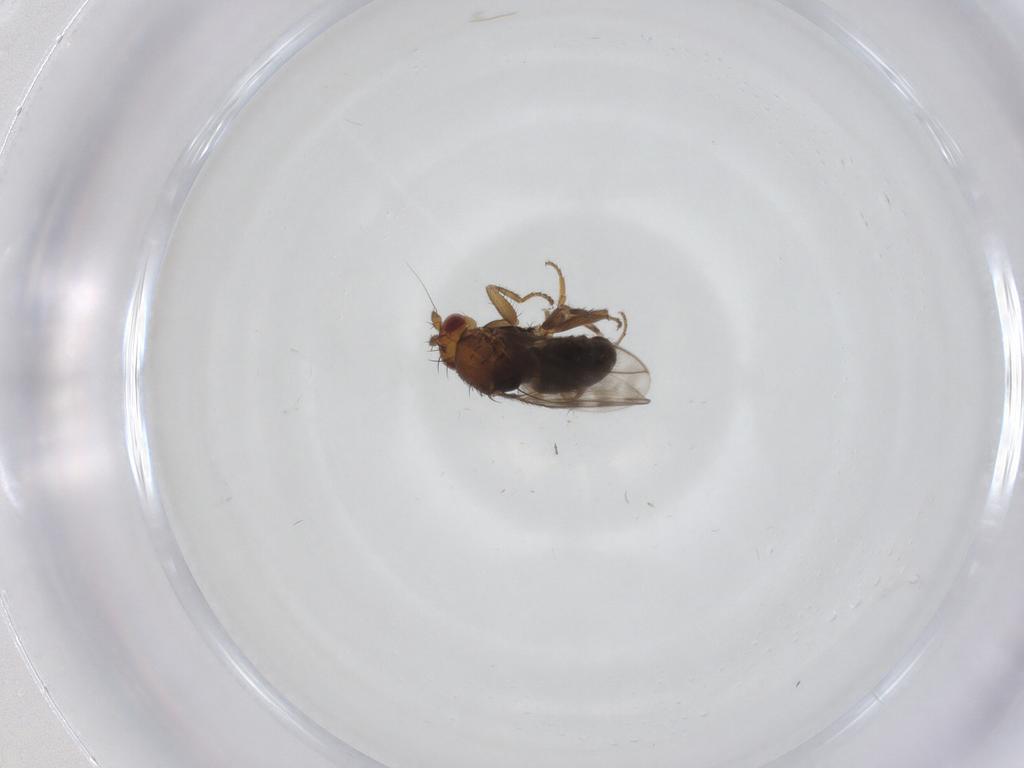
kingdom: Animalia
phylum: Arthropoda
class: Insecta
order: Diptera
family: Sphaeroceridae
